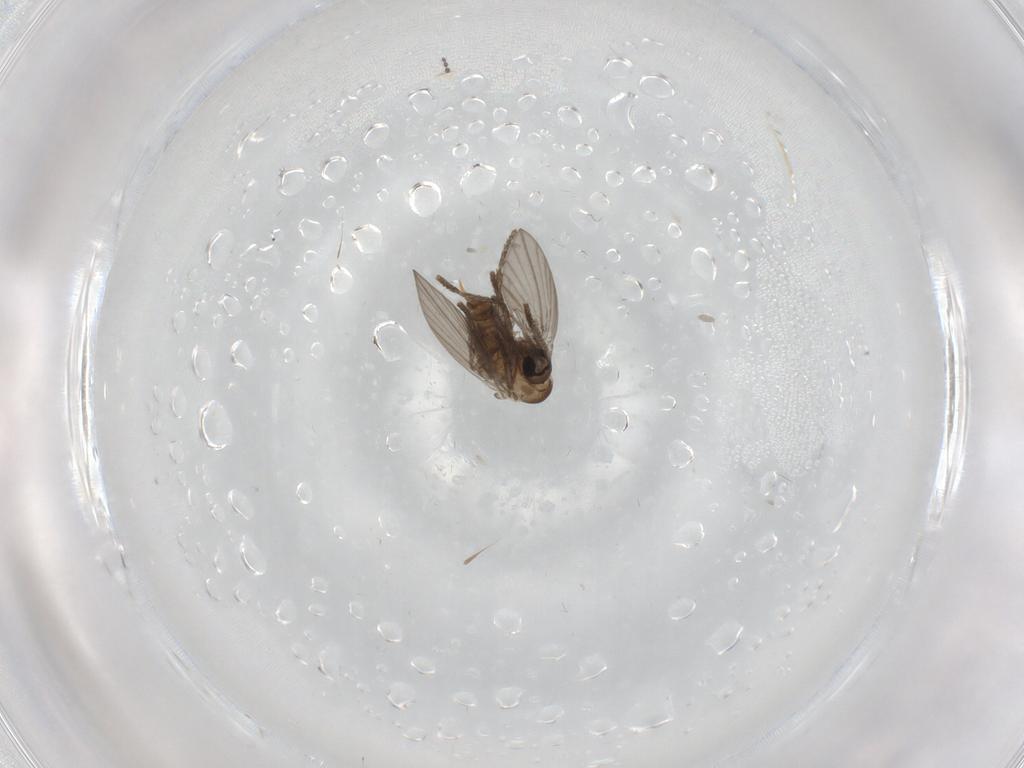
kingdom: Animalia
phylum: Arthropoda
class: Insecta
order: Diptera
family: Psychodidae
